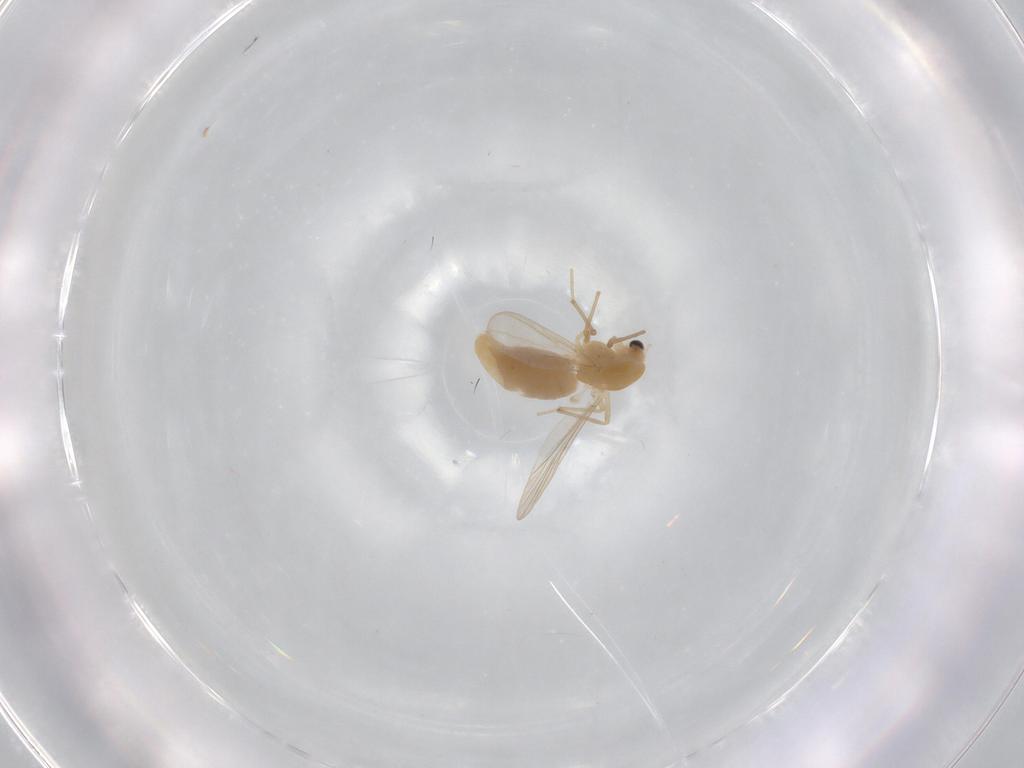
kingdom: Animalia
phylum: Arthropoda
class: Insecta
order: Diptera
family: Chironomidae
